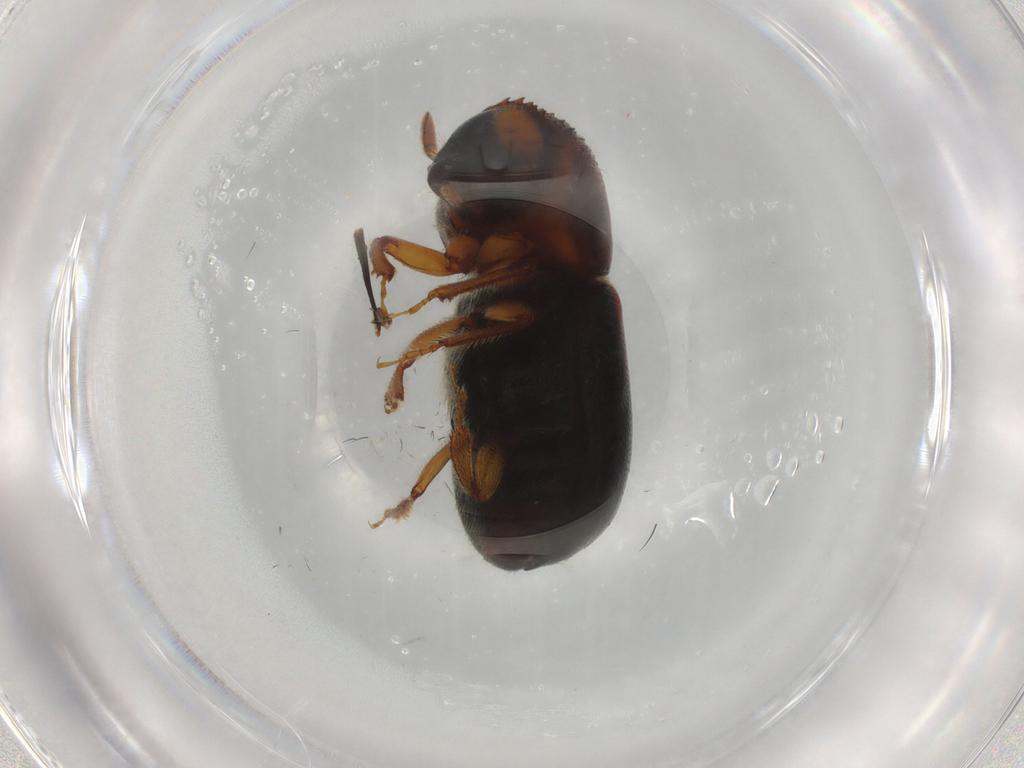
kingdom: Animalia
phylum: Arthropoda
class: Insecta
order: Coleoptera
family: Curculionidae
